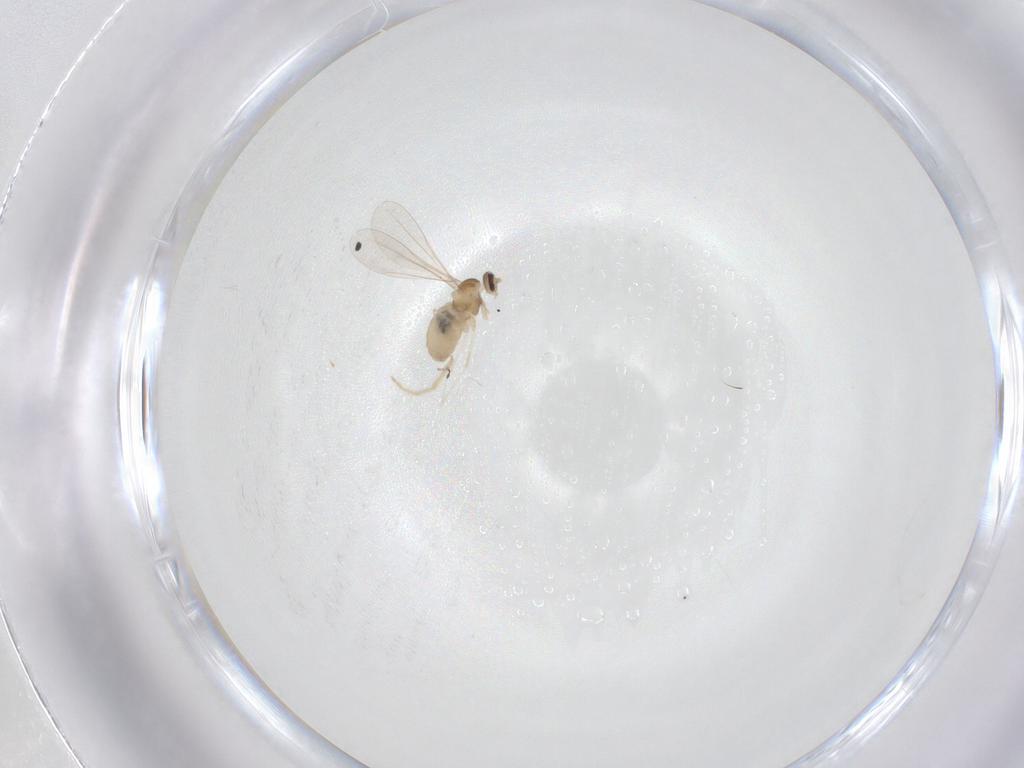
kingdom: Animalia
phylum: Arthropoda
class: Insecta
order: Diptera
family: Cecidomyiidae
